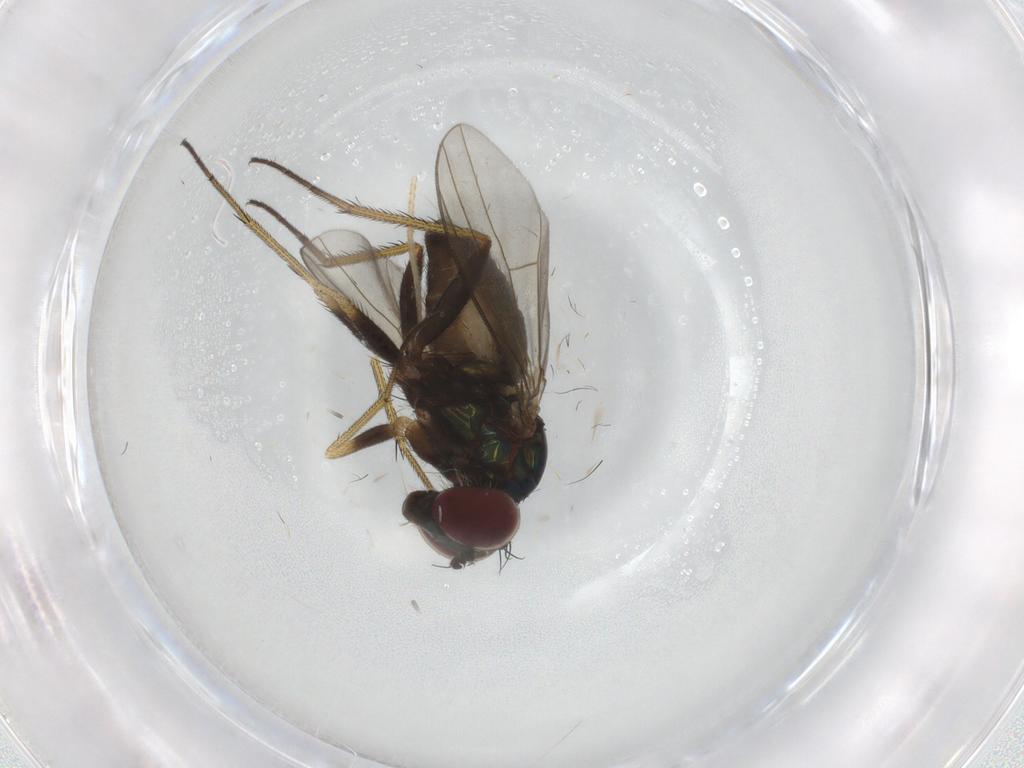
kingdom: Animalia
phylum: Arthropoda
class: Insecta
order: Diptera
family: Dolichopodidae
